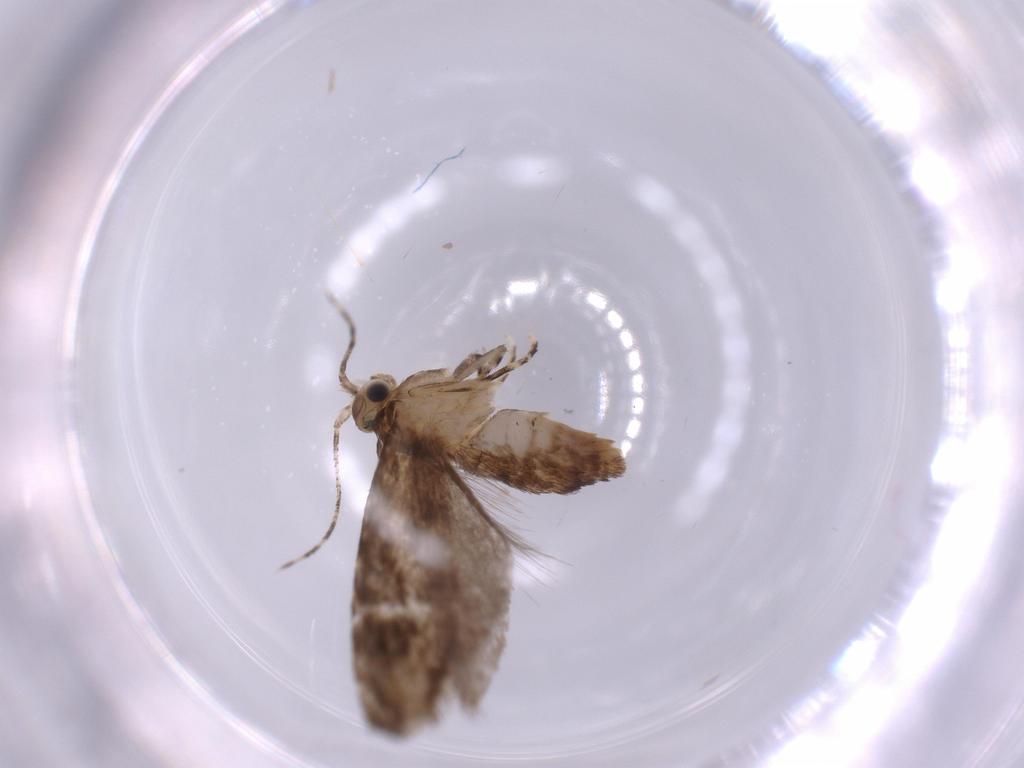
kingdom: Animalia
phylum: Arthropoda
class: Insecta
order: Lepidoptera
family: Tineidae
